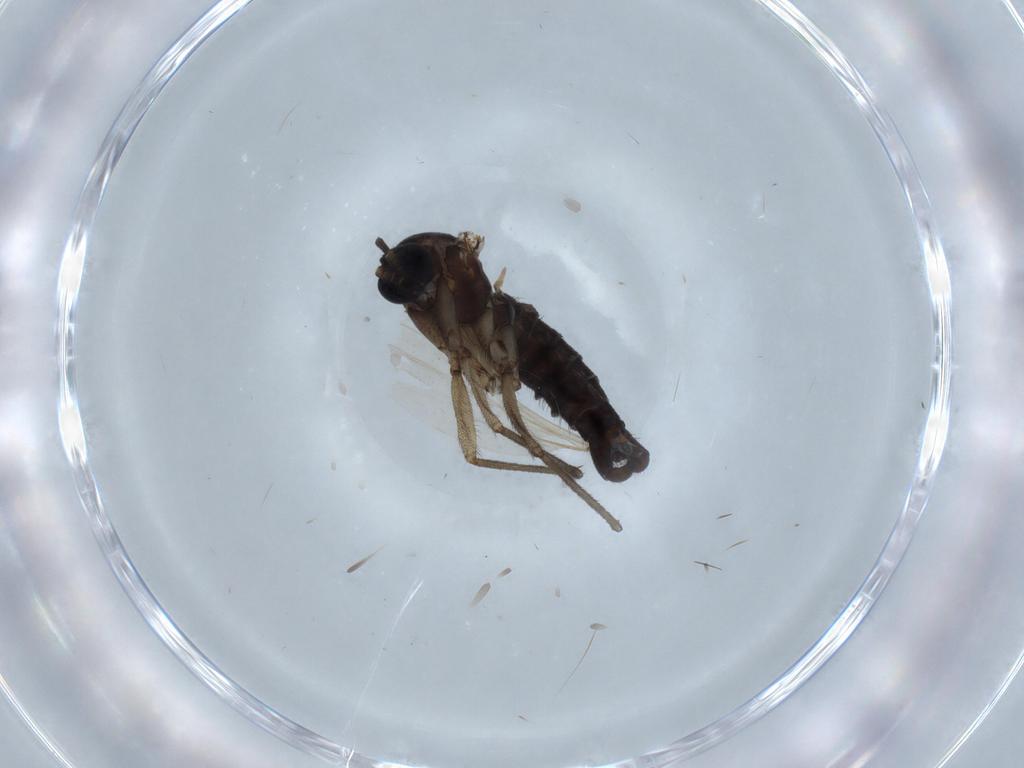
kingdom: Animalia
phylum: Arthropoda
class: Insecta
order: Diptera
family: Sciaridae
